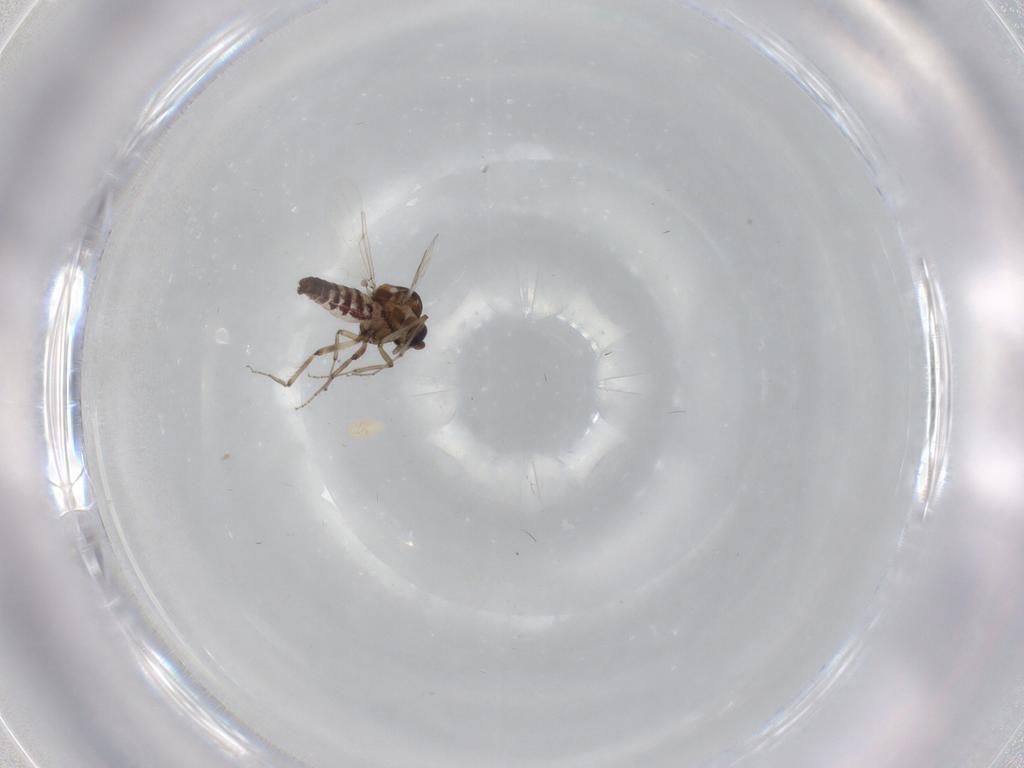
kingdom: Animalia
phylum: Arthropoda
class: Insecta
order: Diptera
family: Ceratopogonidae
